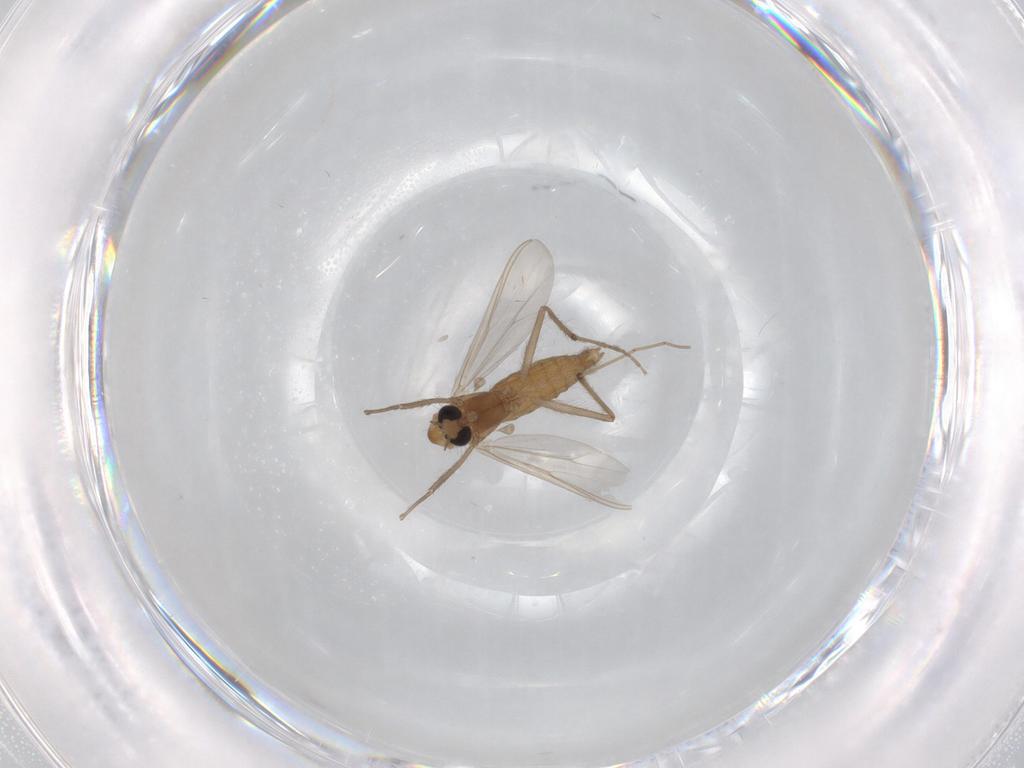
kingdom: Animalia
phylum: Arthropoda
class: Insecta
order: Diptera
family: Chironomidae
